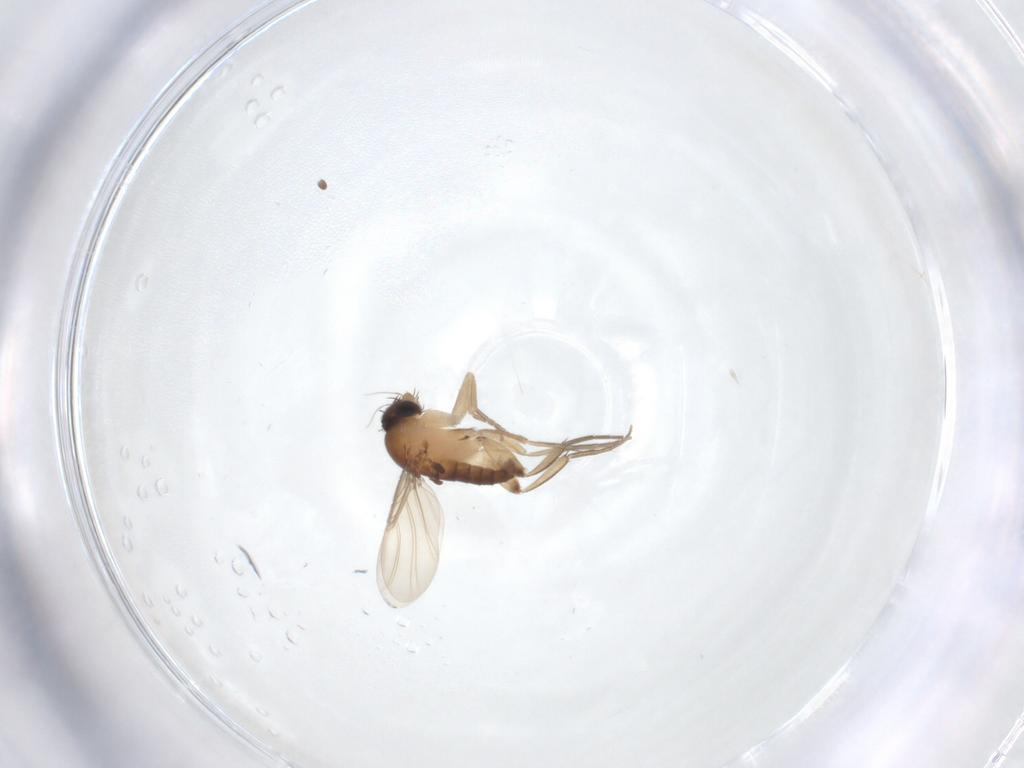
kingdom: Animalia
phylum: Arthropoda
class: Insecta
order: Diptera
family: Phoridae
